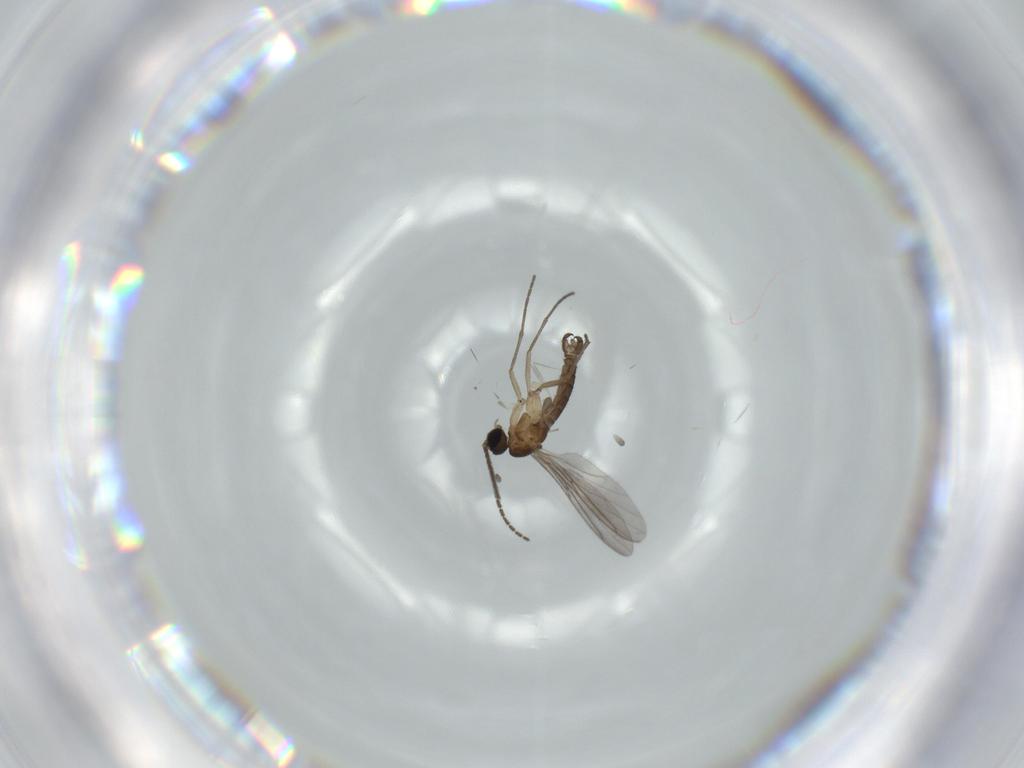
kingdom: Animalia
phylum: Arthropoda
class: Insecta
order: Diptera
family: Sciaridae
